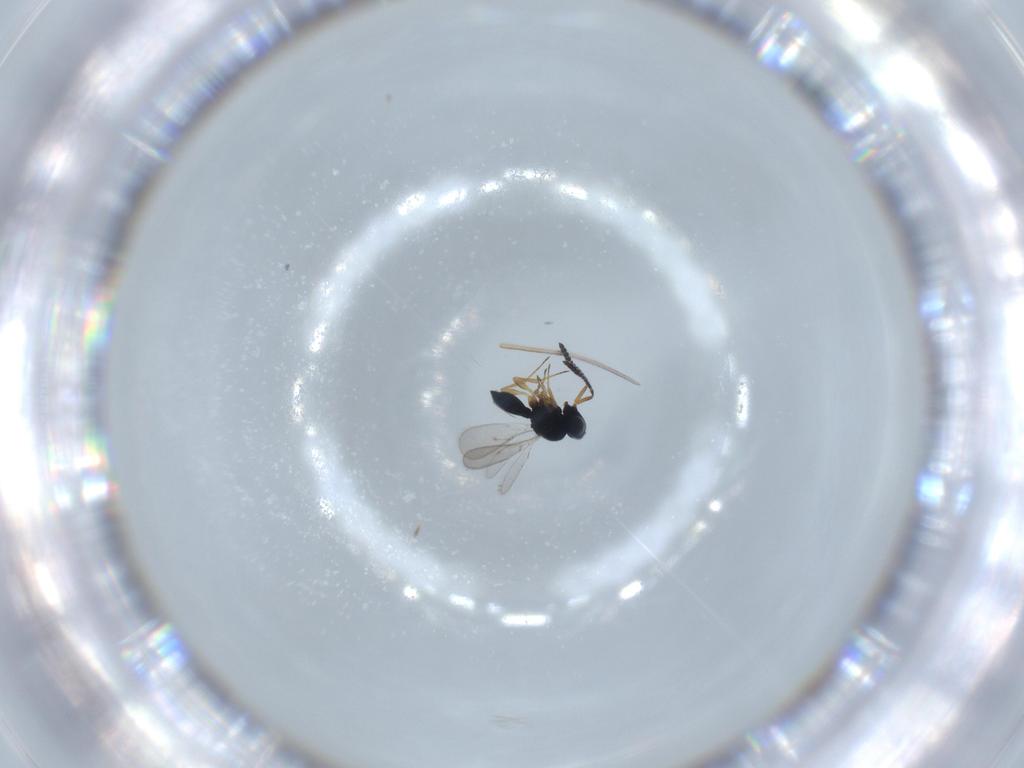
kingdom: Animalia
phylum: Arthropoda
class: Insecta
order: Hymenoptera
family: Scelionidae
